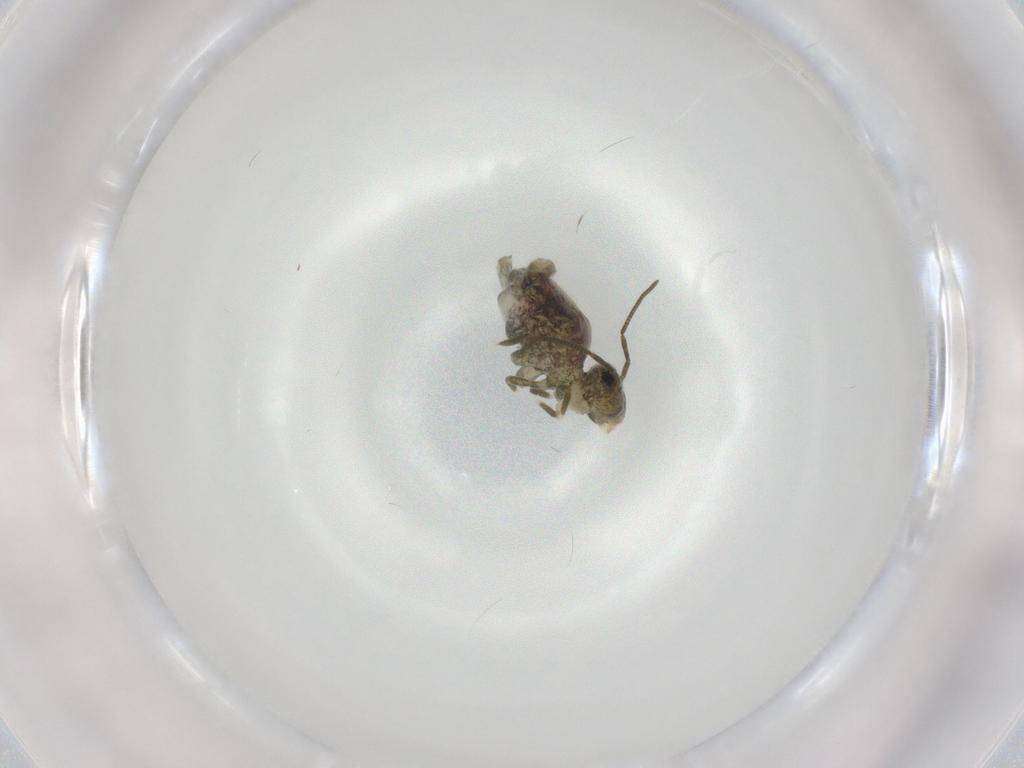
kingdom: Animalia
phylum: Arthropoda
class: Collembola
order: Symphypleona
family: Sminthuridae
